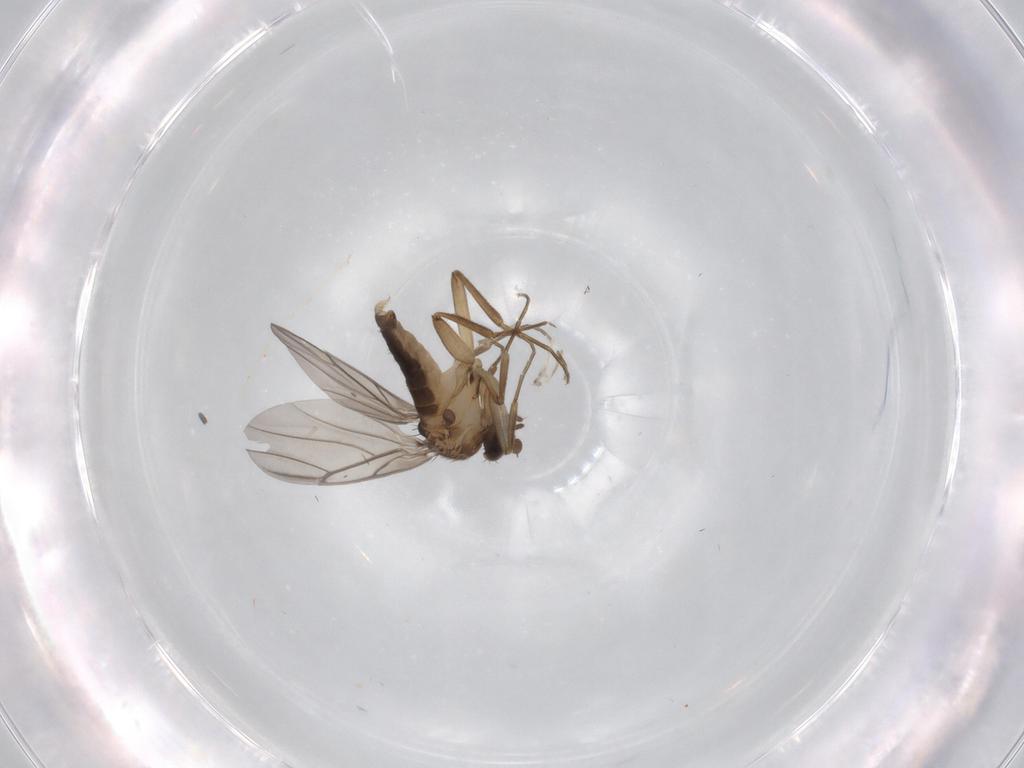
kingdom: Animalia
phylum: Arthropoda
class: Insecta
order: Diptera
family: Phoridae
